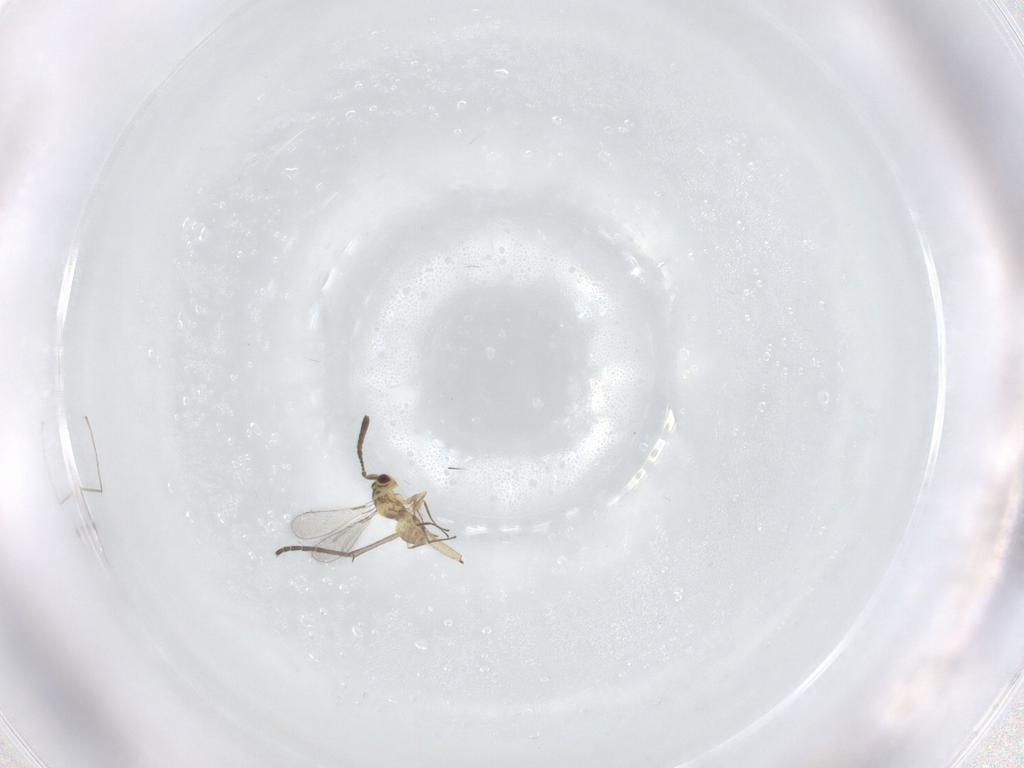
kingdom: Animalia
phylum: Arthropoda
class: Insecta
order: Hymenoptera
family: Mymaridae
